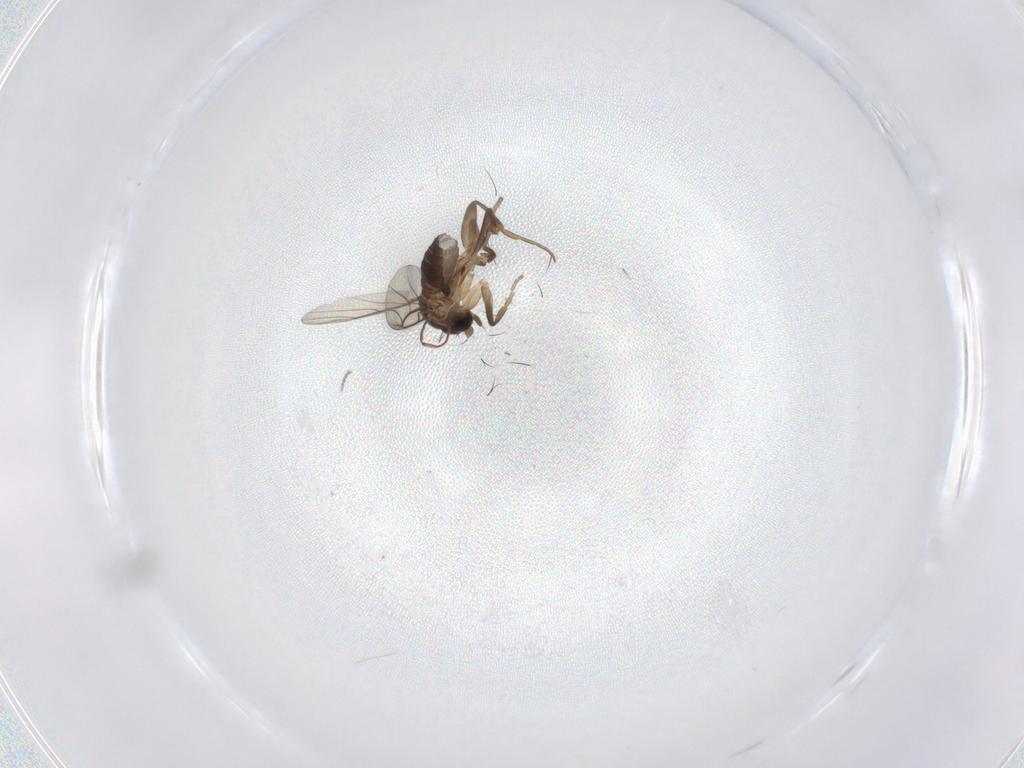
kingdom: Animalia
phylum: Arthropoda
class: Insecta
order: Diptera
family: Phoridae
